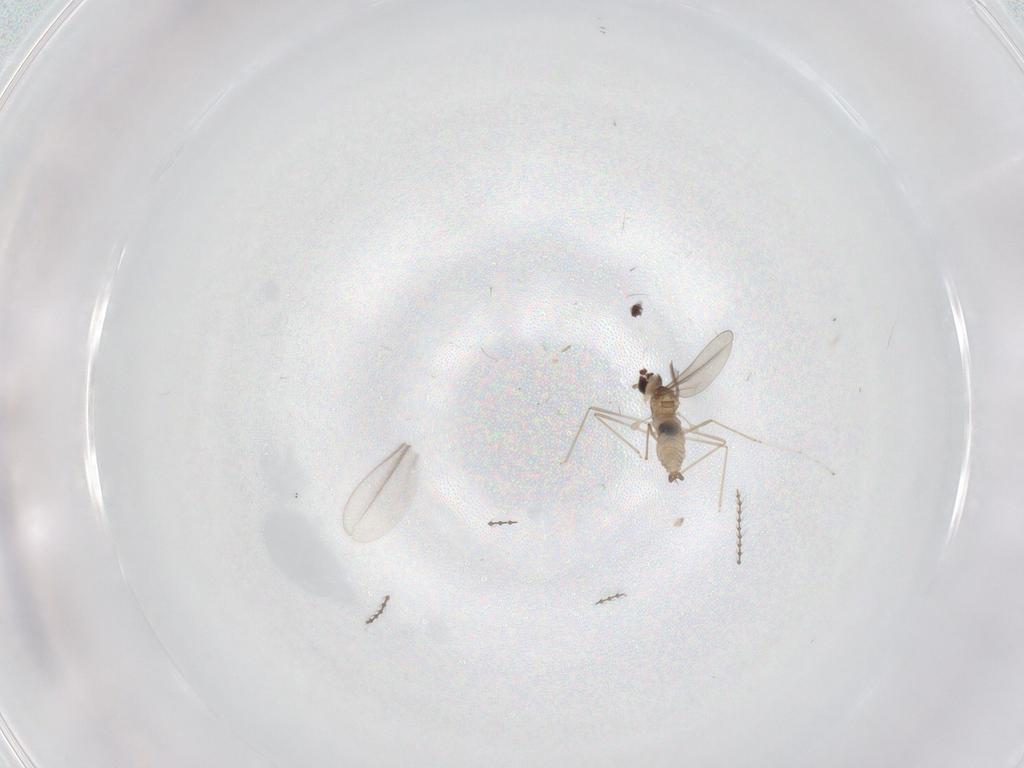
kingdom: Animalia
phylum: Arthropoda
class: Insecta
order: Diptera
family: Cecidomyiidae
